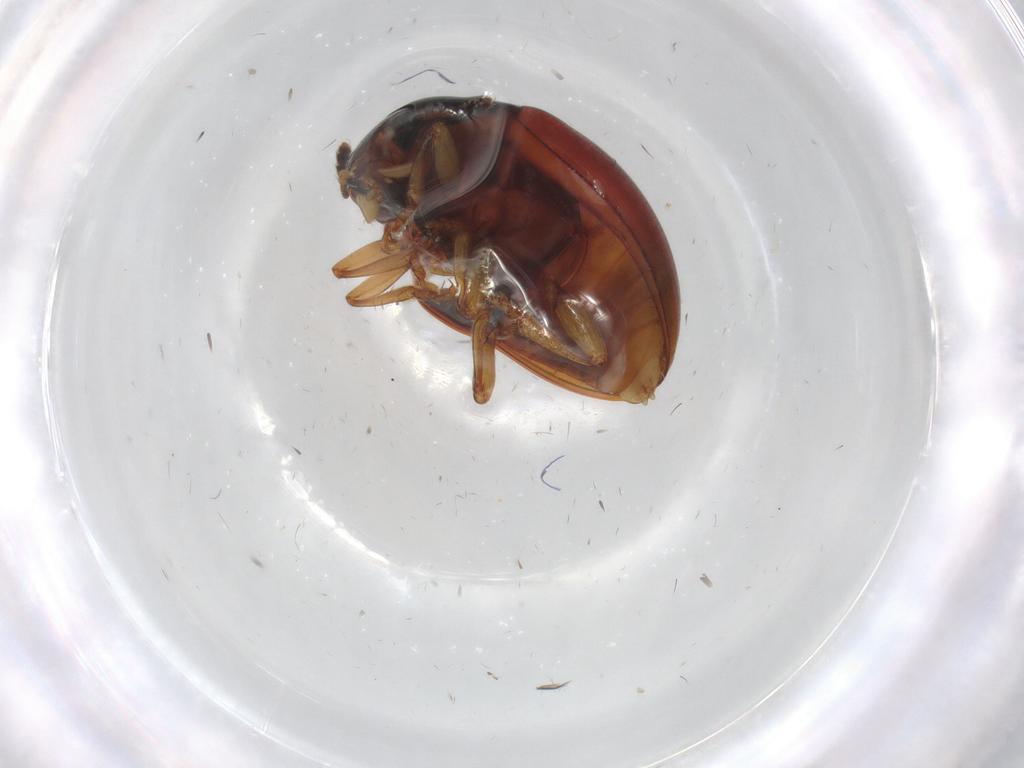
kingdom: Animalia
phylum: Arthropoda
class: Insecta
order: Coleoptera
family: Erotylidae
